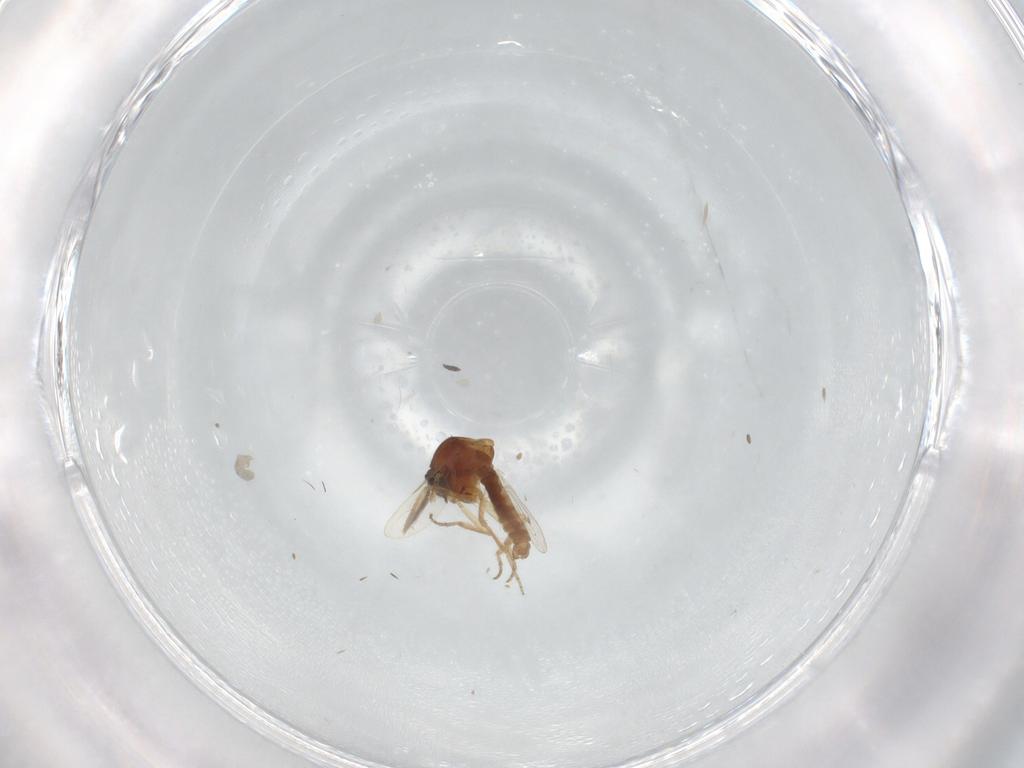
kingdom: Animalia
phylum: Arthropoda
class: Insecta
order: Diptera
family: Ceratopogonidae
